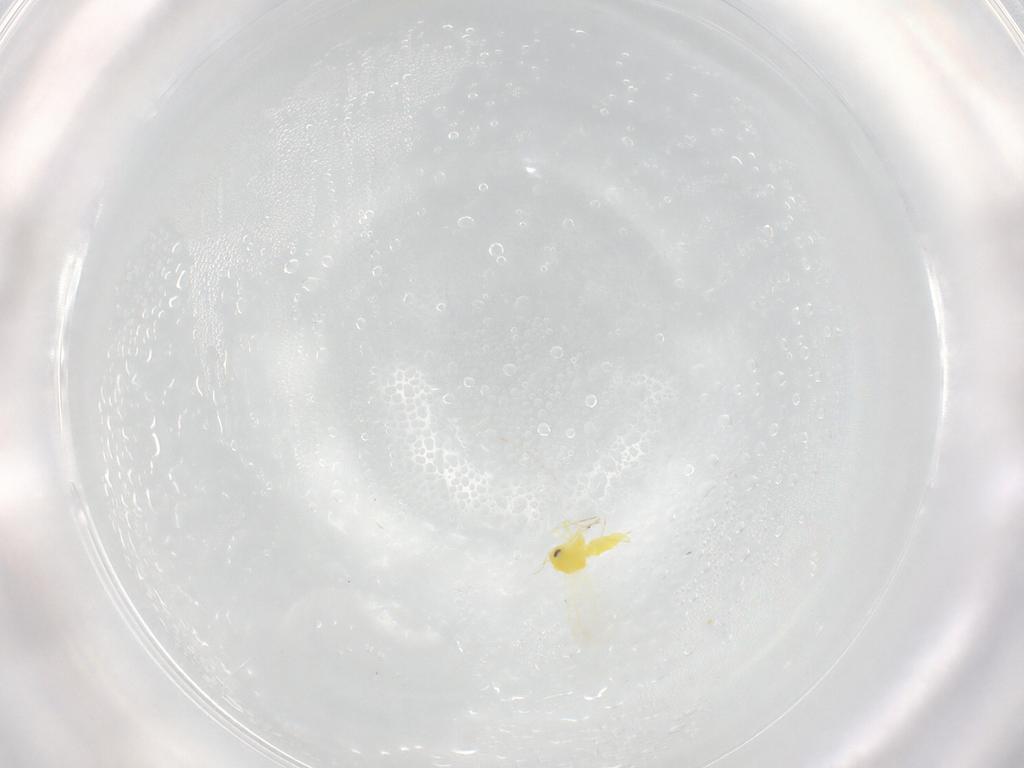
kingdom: Animalia
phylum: Arthropoda
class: Insecta
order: Hemiptera
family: Aleyrodidae
